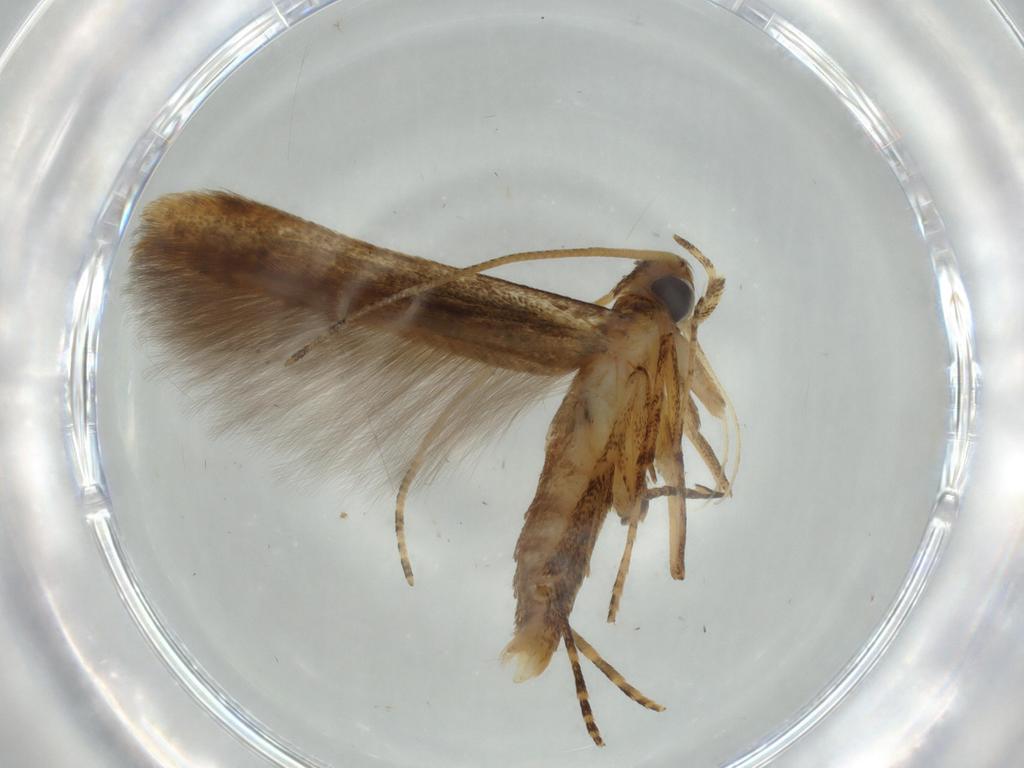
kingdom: Animalia
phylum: Arthropoda
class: Insecta
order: Lepidoptera
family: Batrachedridae
